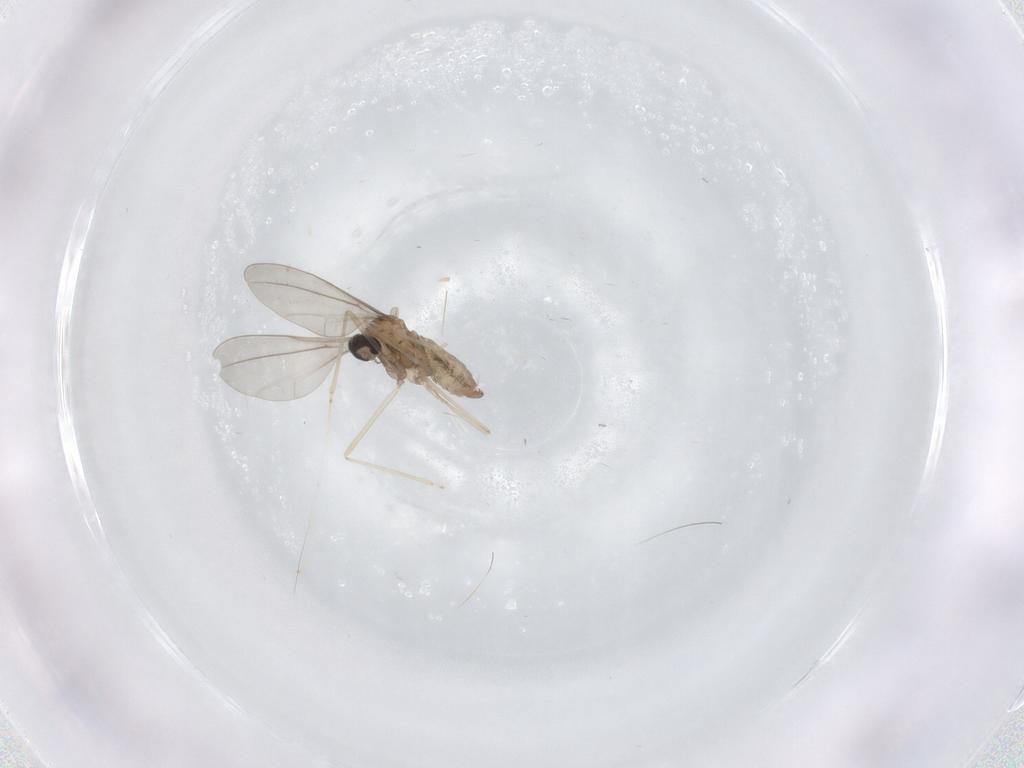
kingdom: Animalia
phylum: Arthropoda
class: Insecta
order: Diptera
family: Cecidomyiidae
